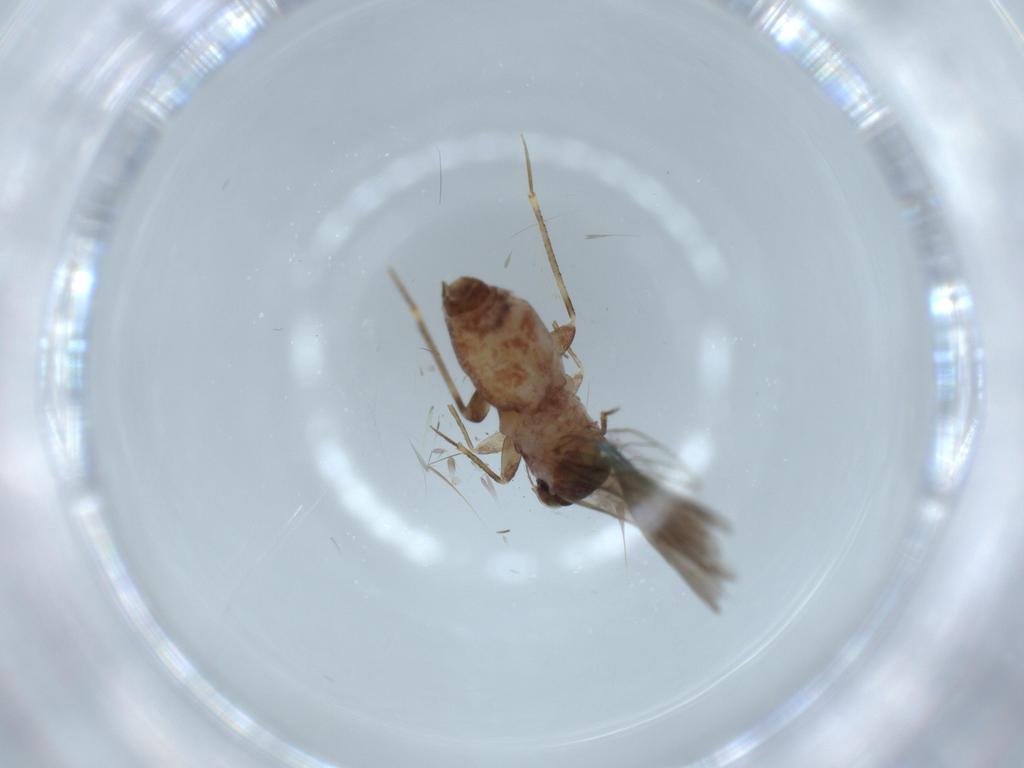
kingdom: Animalia
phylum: Arthropoda
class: Insecta
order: Psocodea
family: Lepidopsocidae
